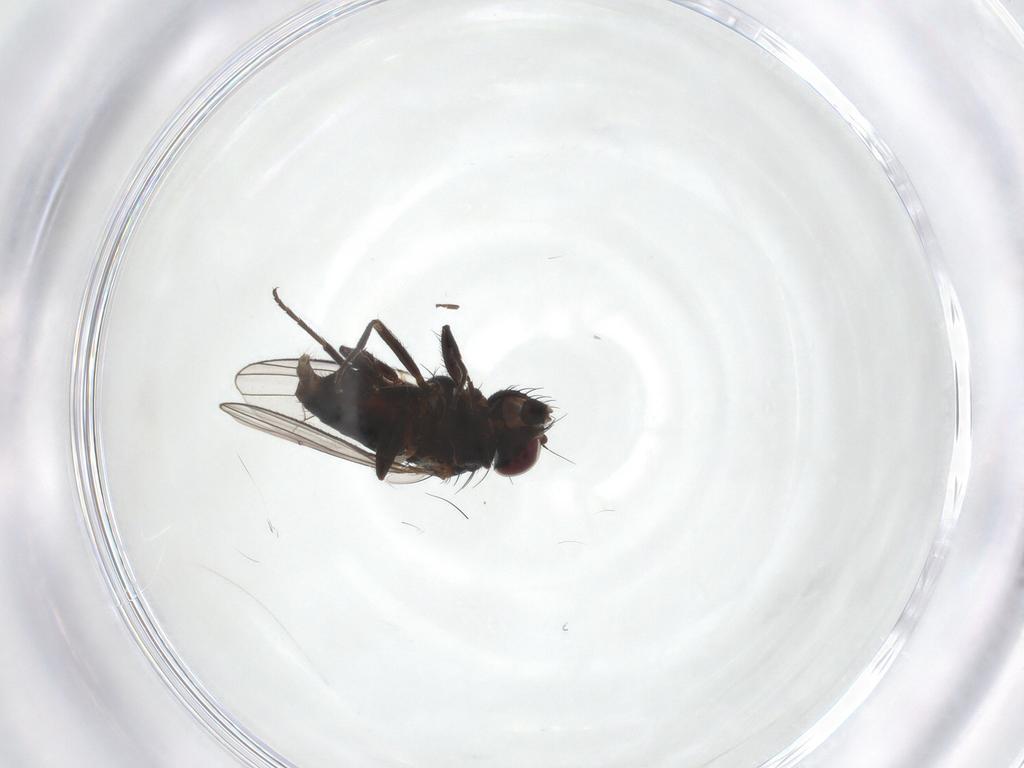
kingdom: Animalia
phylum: Arthropoda
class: Insecta
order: Diptera
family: Carnidae
